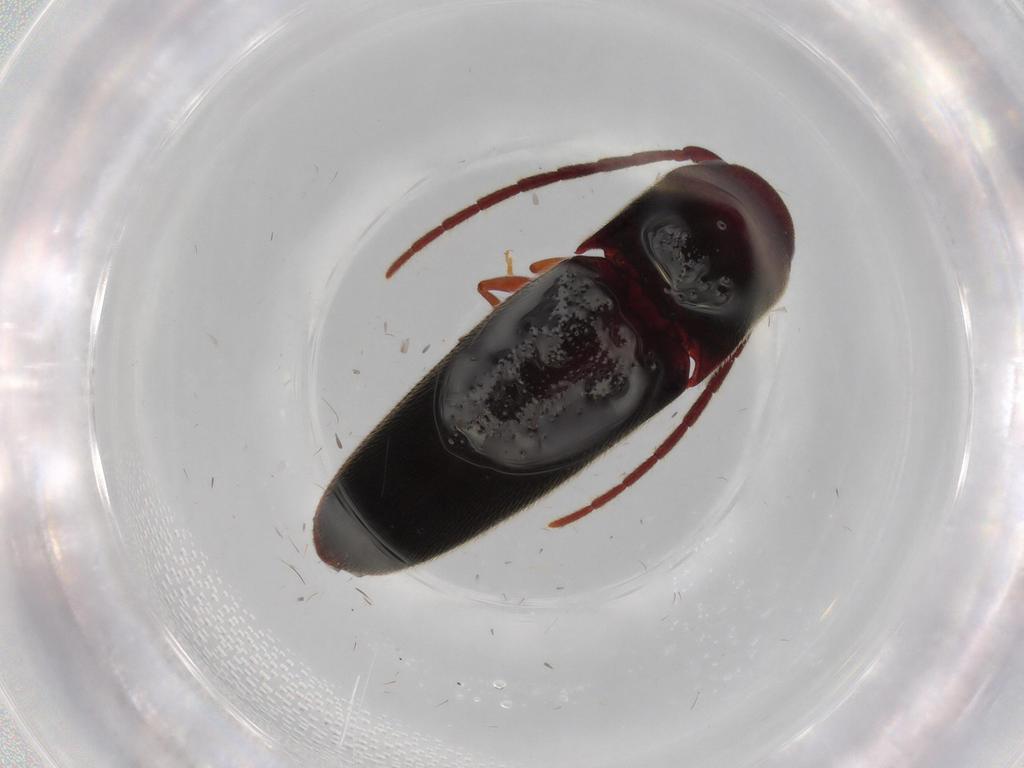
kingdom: Animalia
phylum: Arthropoda
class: Insecta
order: Coleoptera
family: Eucnemidae
